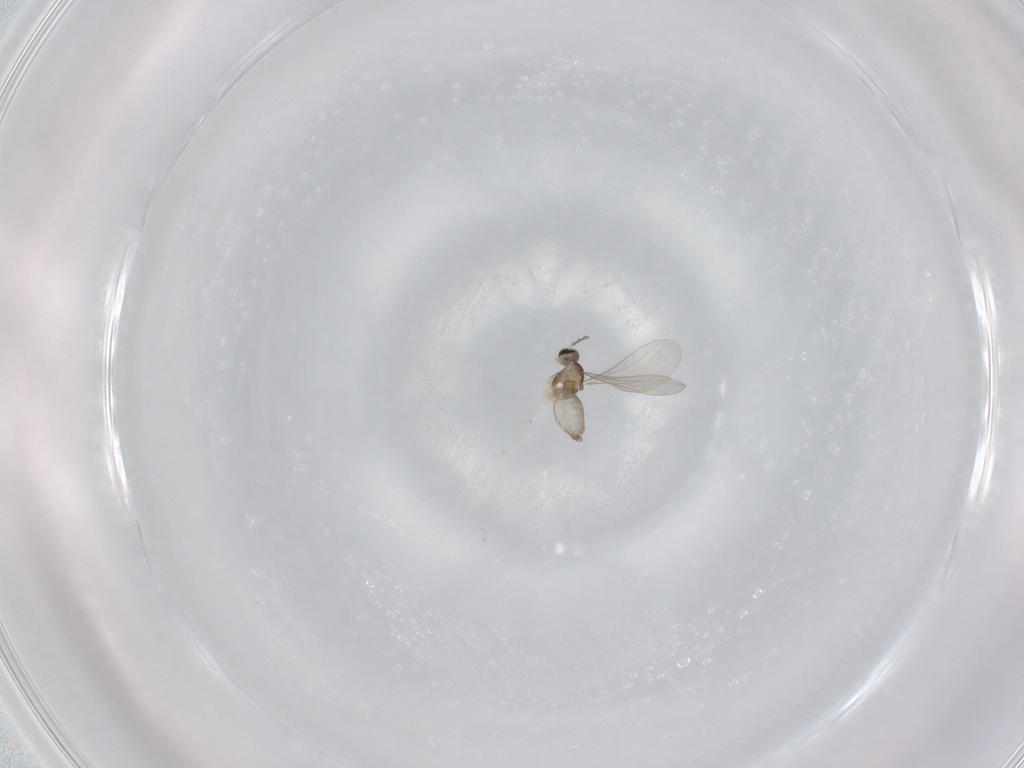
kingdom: Animalia
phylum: Arthropoda
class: Insecta
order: Diptera
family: Cecidomyiidae
